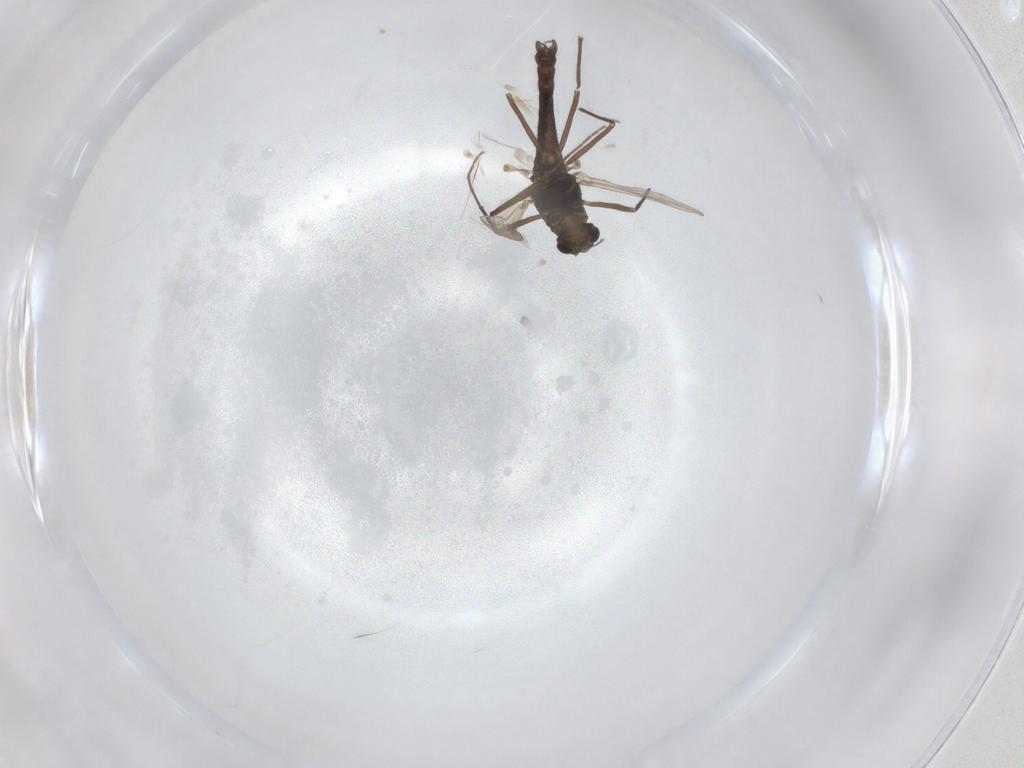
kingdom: Animalia
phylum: Arthropoda
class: Insecta
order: Diptera
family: Chironomidae
